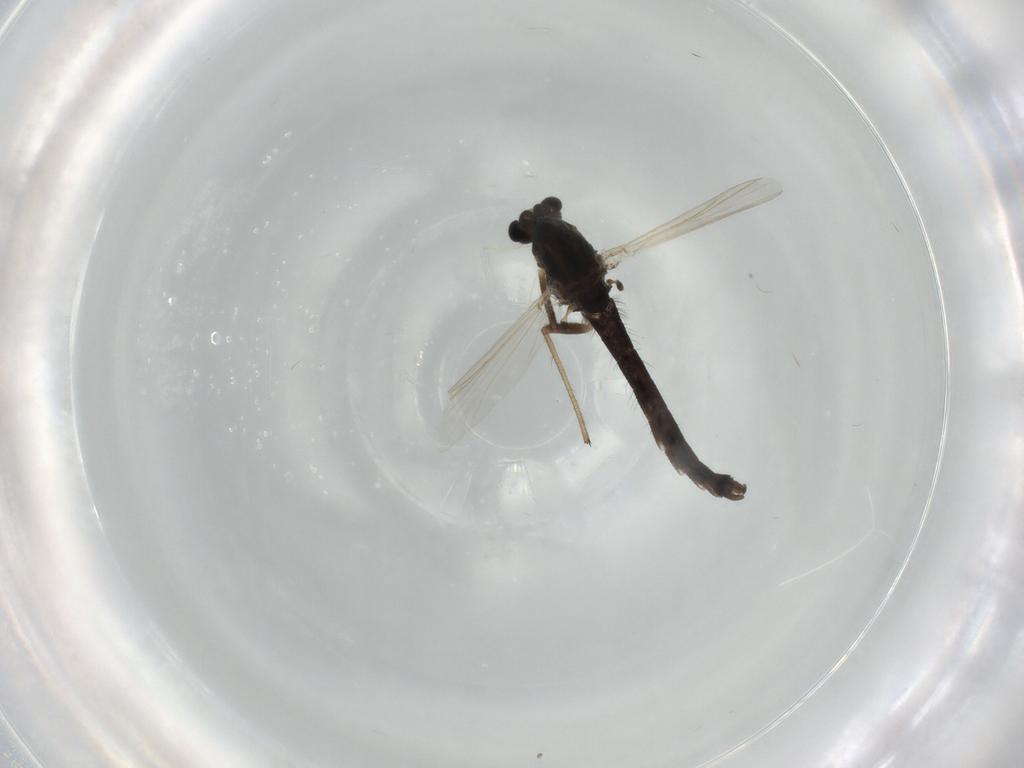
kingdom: Animalia
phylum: Arthropoda
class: Insecta
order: Diptera
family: Chironomidae
